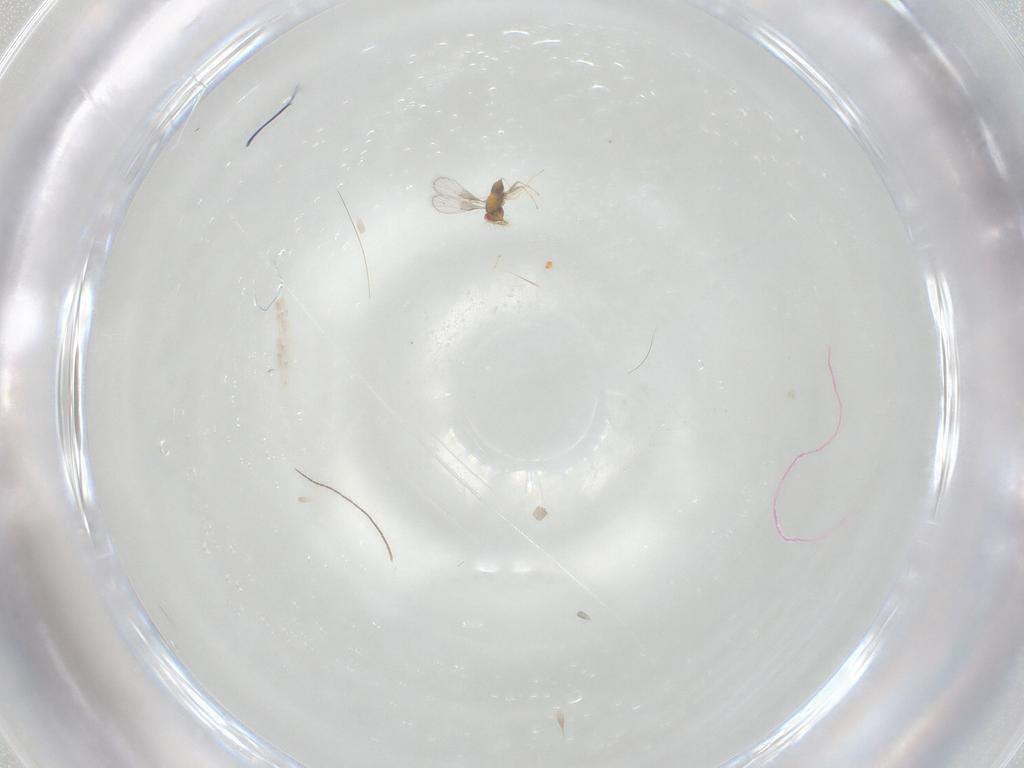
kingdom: Animalia
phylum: Arthropoda
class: Insecta
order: Psocodea
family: Lachesillidae
